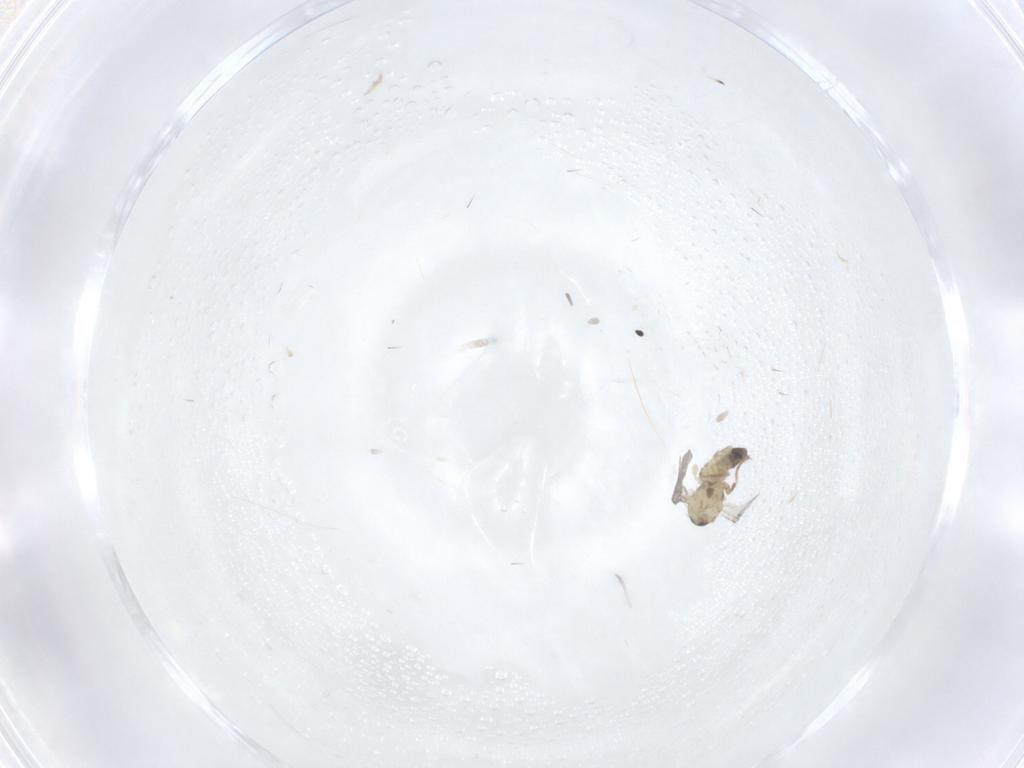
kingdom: Animalia
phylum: Arthropoda
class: Insecta
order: Diptera
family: Agromyzidae
